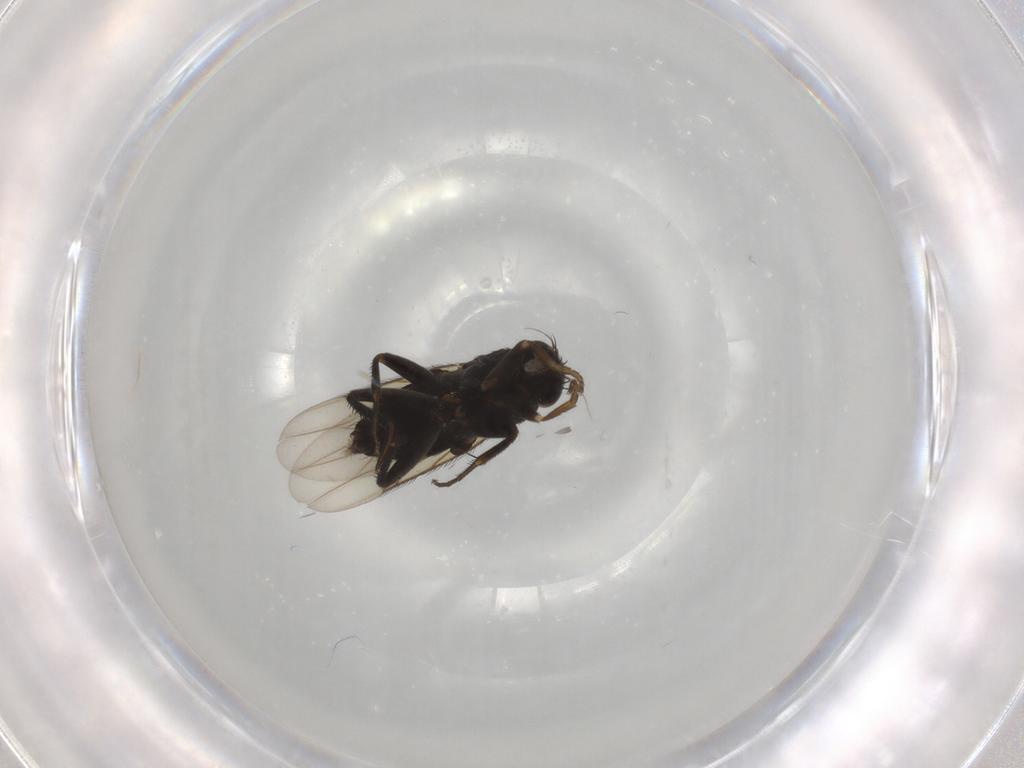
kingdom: Animalia
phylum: Arthropoda
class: Insecta
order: Diptera
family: Phoridae
